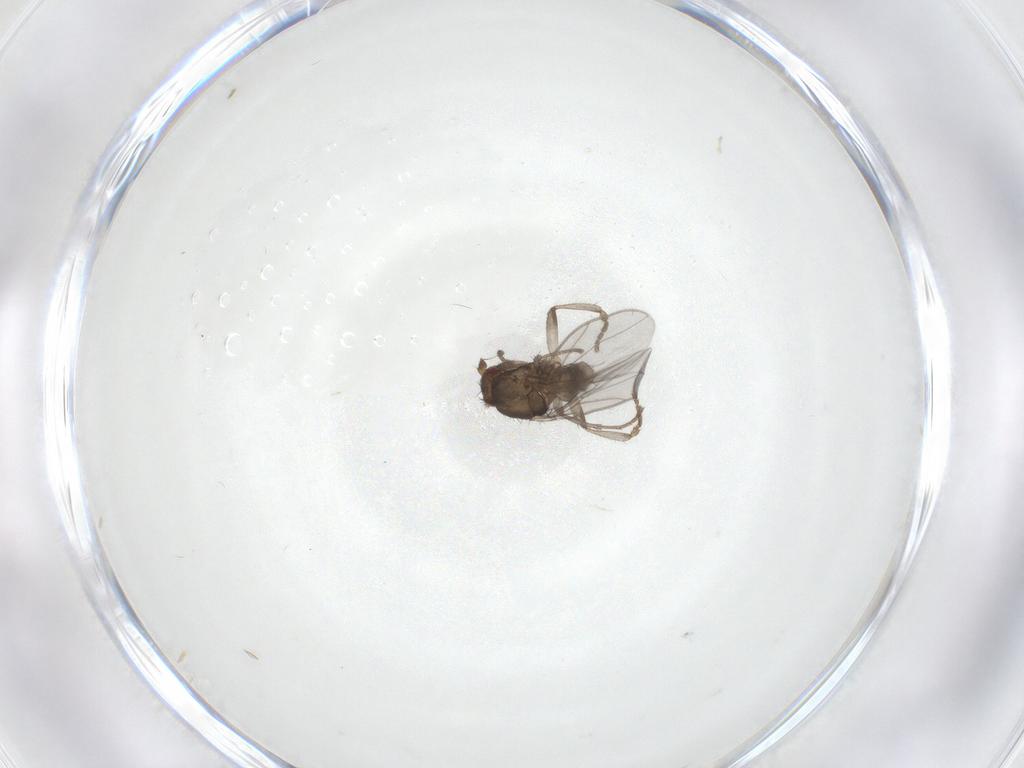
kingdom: Animalia
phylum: Arthropoda
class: Insecta
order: Diptera
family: Sphaeroceridae
